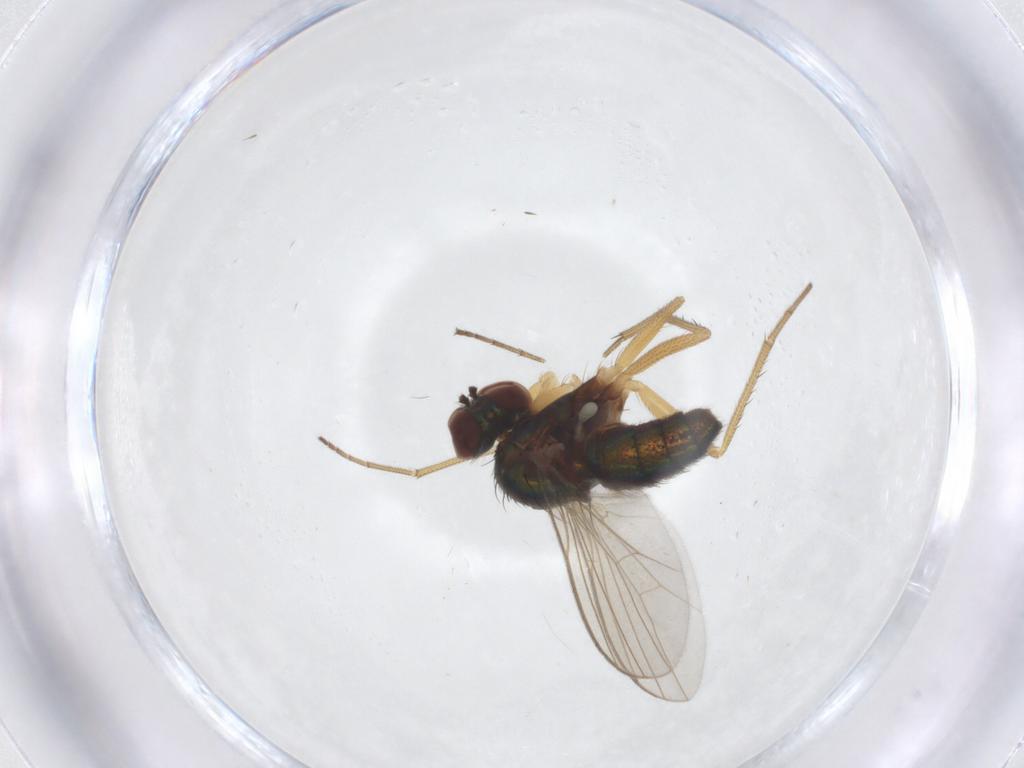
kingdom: Animalia
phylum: Arthropoda
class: Insecta
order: Diptera
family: Dolichopodidae
